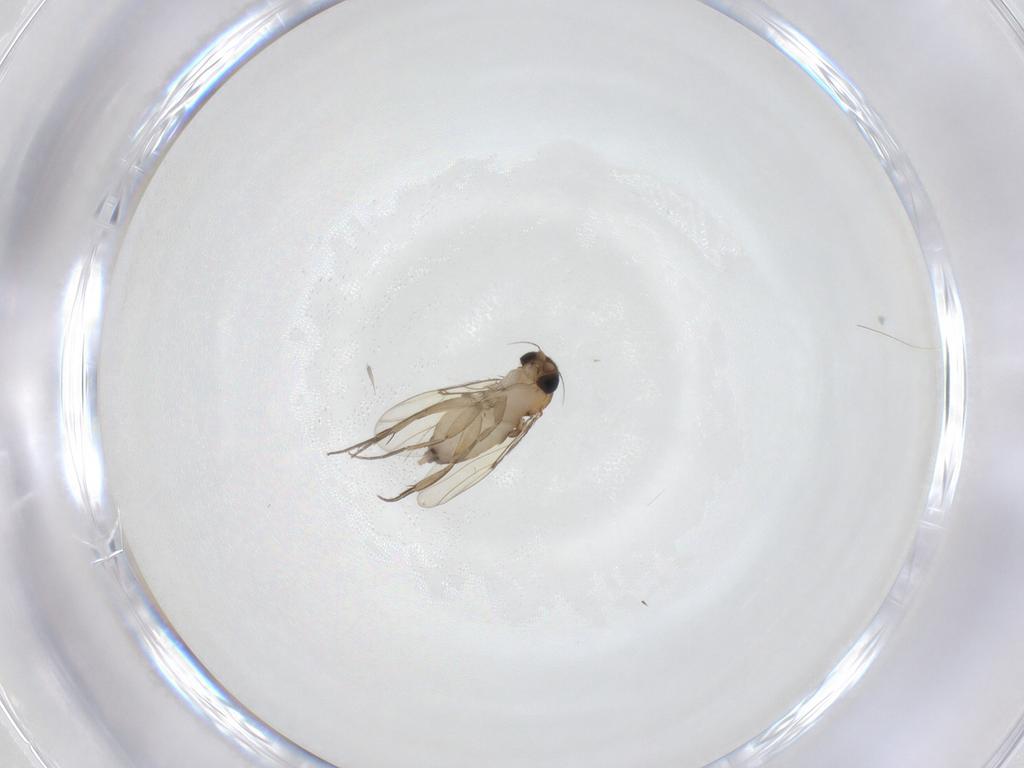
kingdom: Animalia
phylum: Arthropoda
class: Insecta
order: Diptera
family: Phoridae
